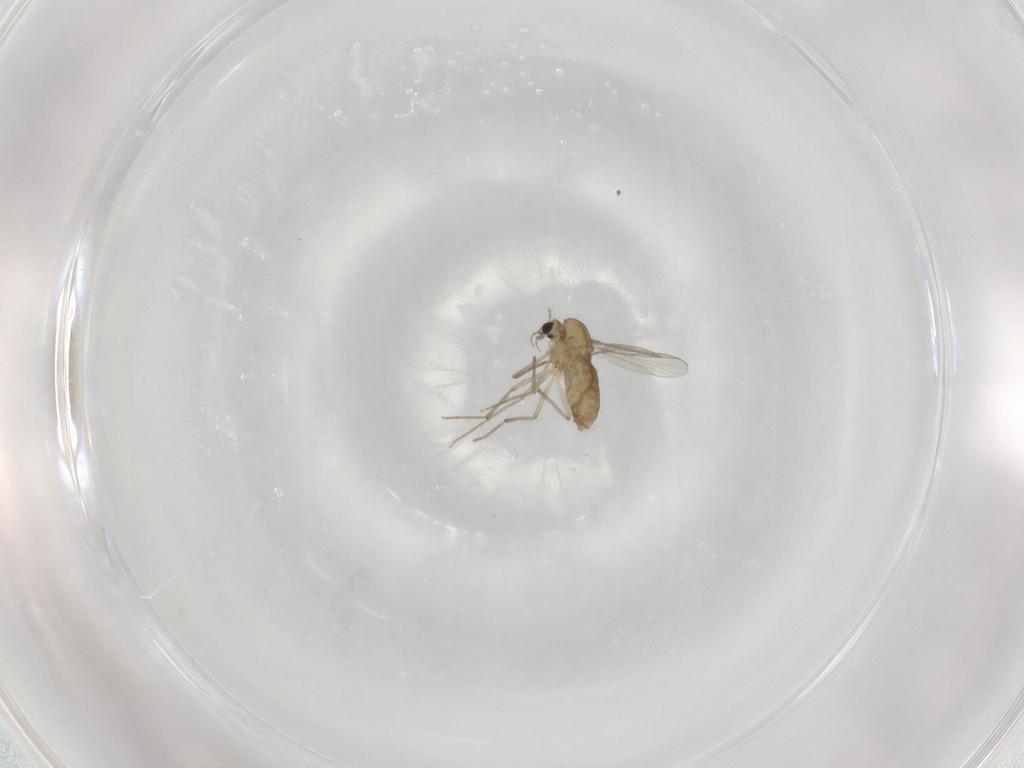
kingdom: Animalia
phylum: Arthropoda
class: Insecta
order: Diptera
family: Chironomidae
